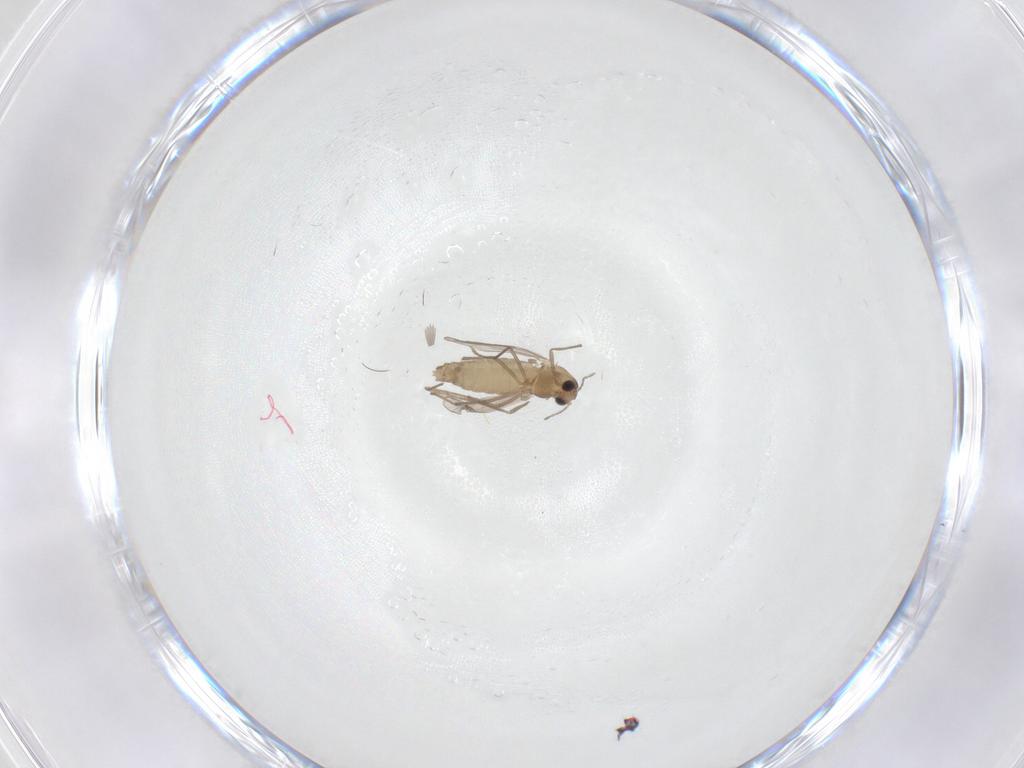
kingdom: Animalia
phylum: Arthropoda
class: Insecta
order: Diptera
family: Chironomidae
